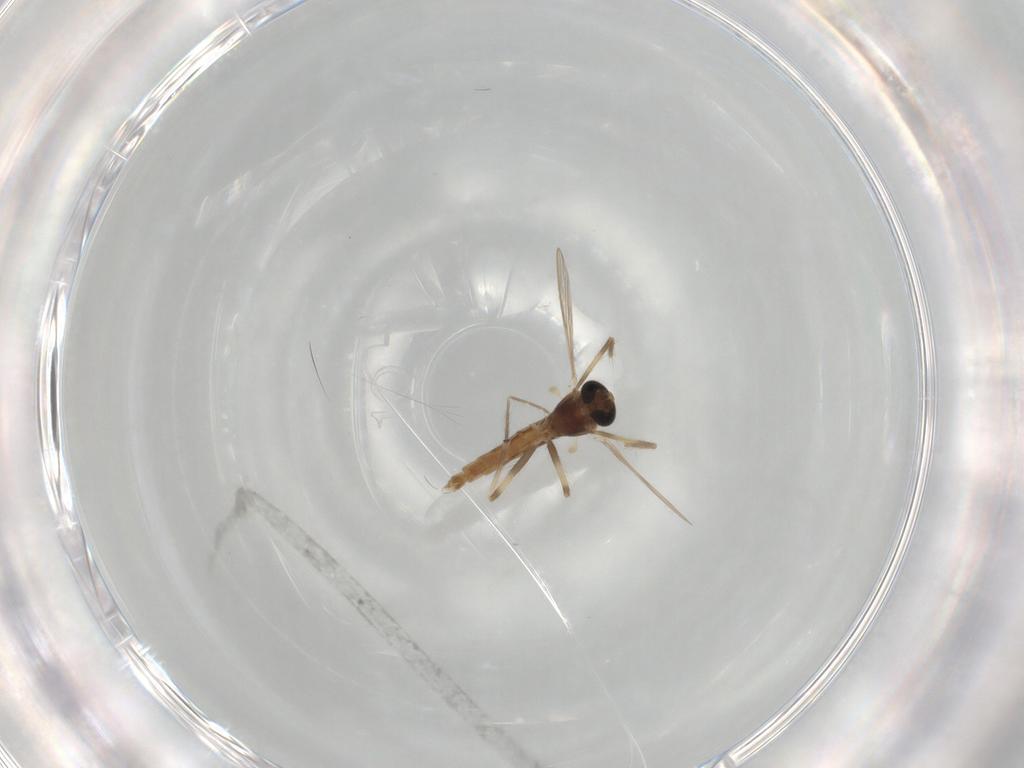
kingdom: Animalia
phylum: Arthropoda
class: Insecta
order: Diptera
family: Chironomidae
